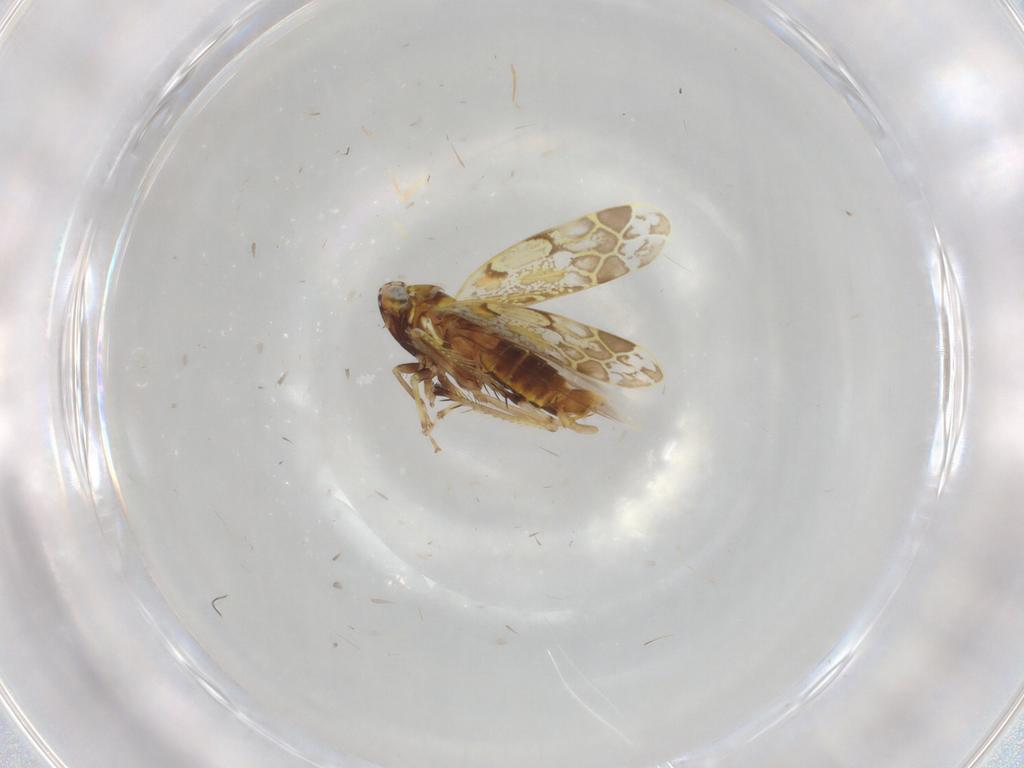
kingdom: Animalia
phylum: Arthropoda
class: Insecta
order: Hemiptera
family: Cicadellidae
